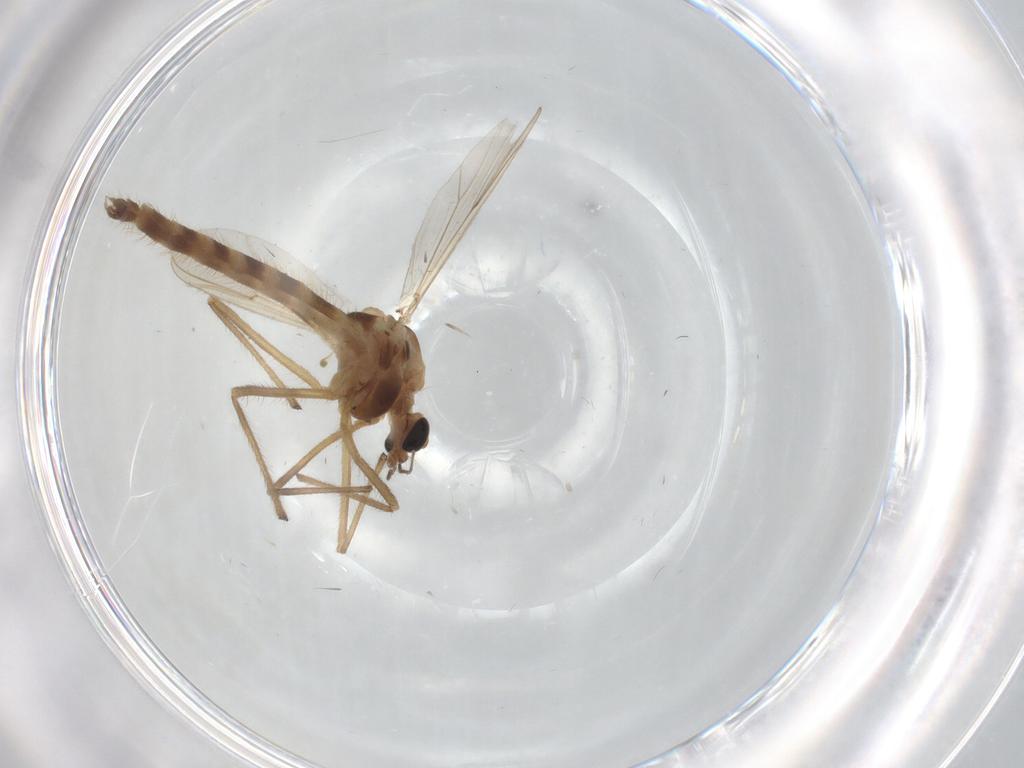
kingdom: Animalia
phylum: Arthropoda
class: Insecta
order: Diptera
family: Chironomidae
